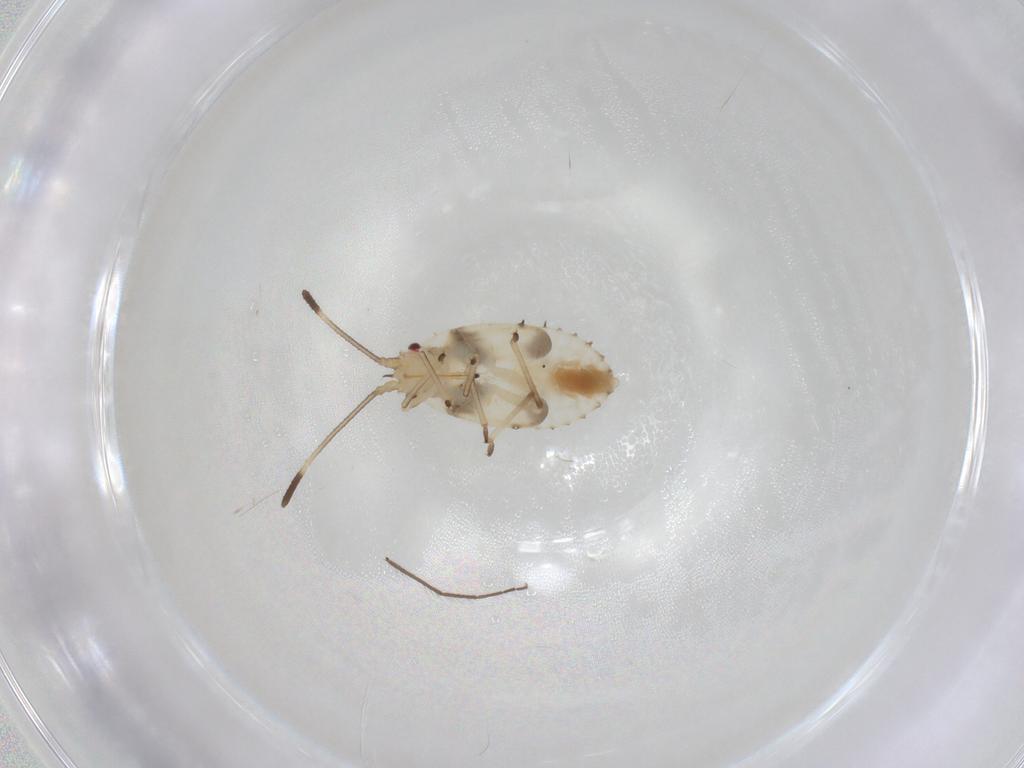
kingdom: Animalia
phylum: Arthropoda
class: Insecta
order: Hemiptera
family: Tingidae
